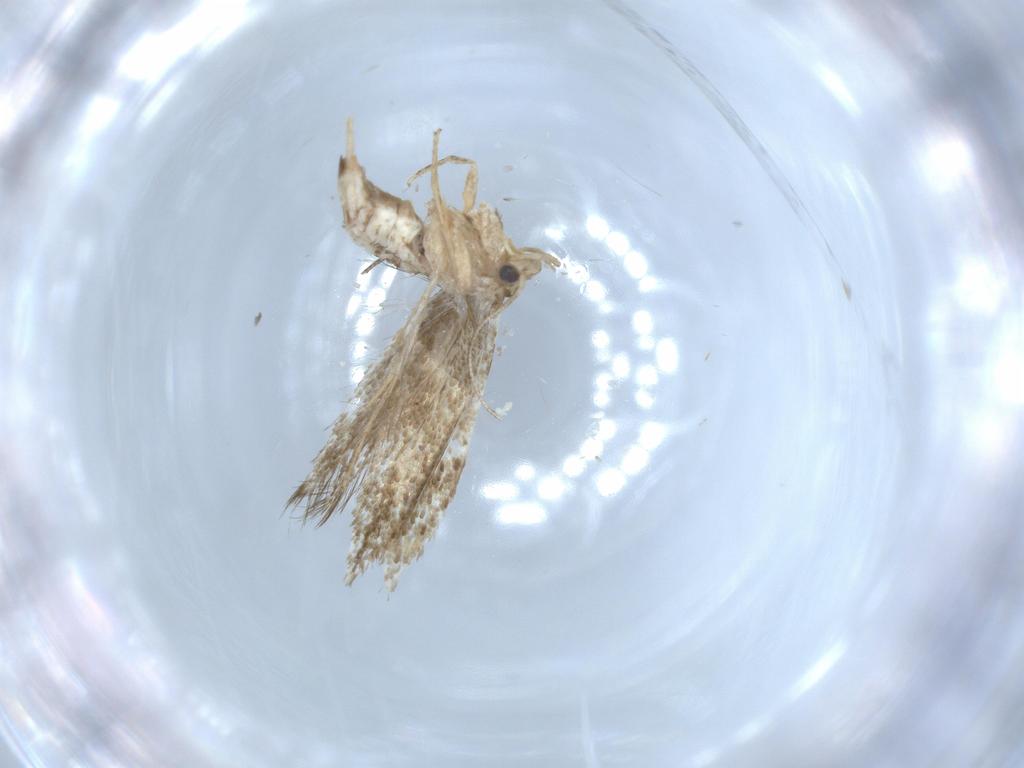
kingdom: Animalia
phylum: Arthropoda
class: Insecta
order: Lepidoptera
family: Tineidae
